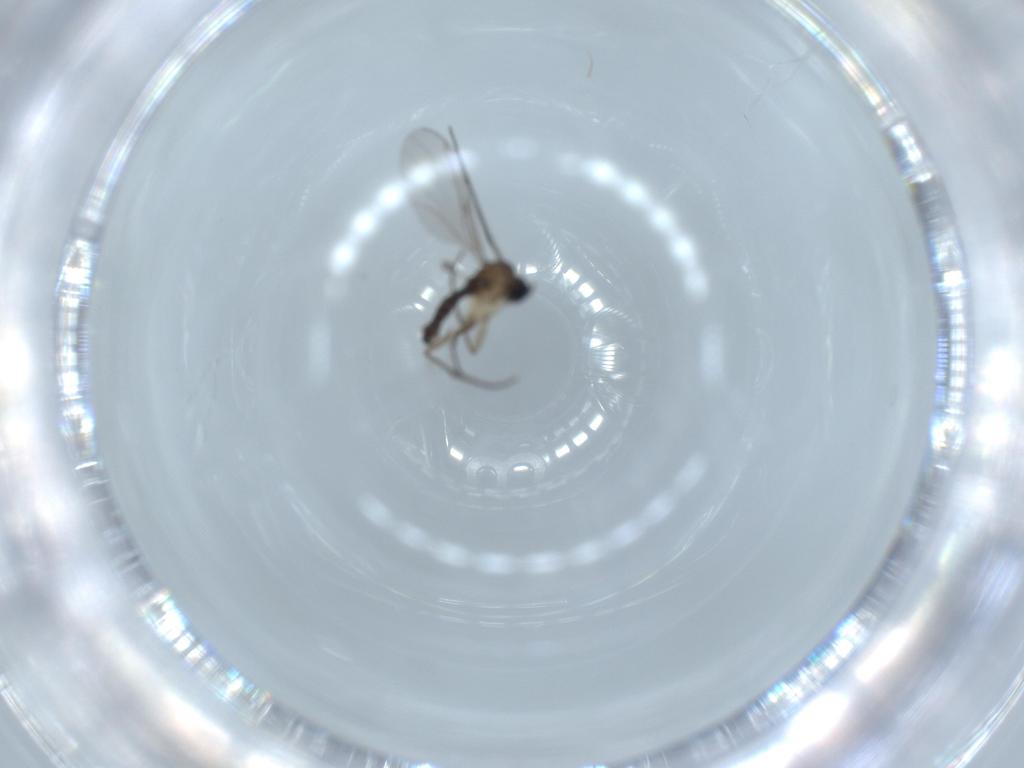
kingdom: Animalia
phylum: Arthropoda
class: Insecta
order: Diptera
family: Sciaridae
